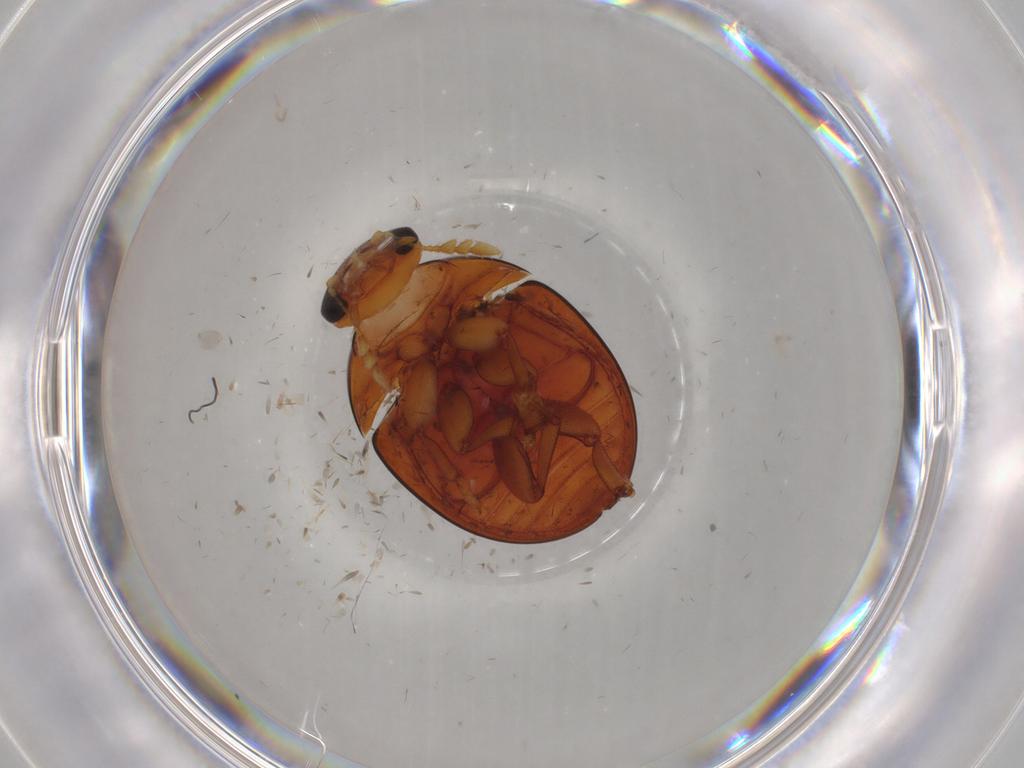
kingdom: Animalia
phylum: Arthropoda
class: Insecta
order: Coleoptera
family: Phalacridae
